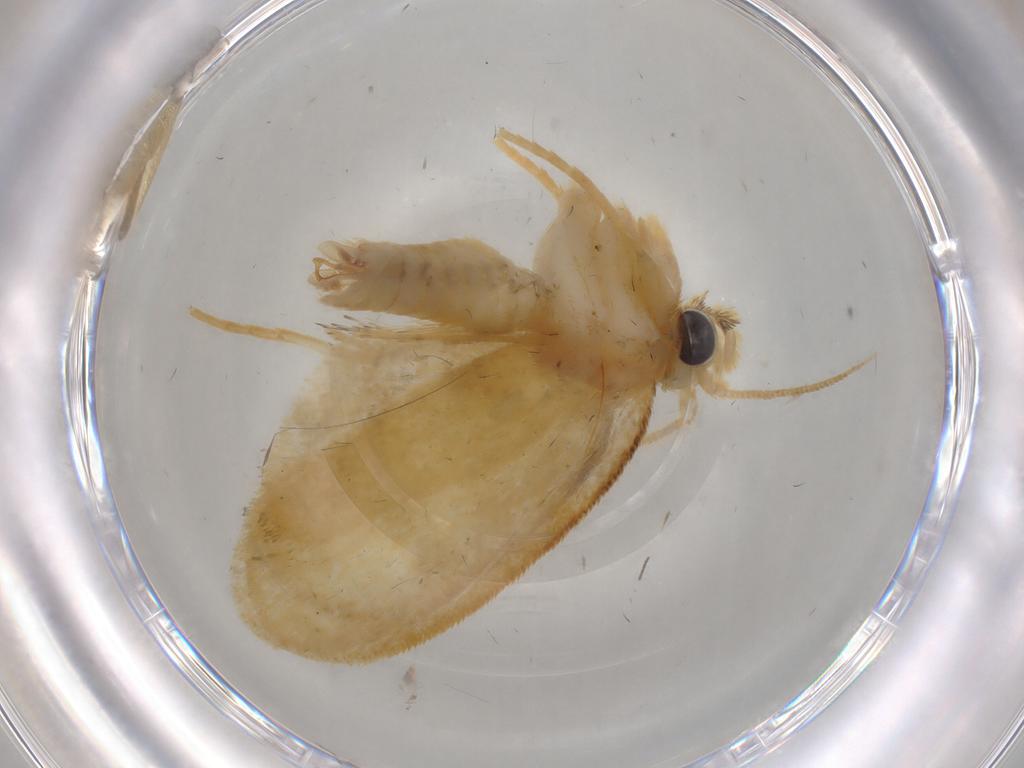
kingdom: Animalia
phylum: Arthropoda
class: Insecta
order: Lepidoptera
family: Psychidae
